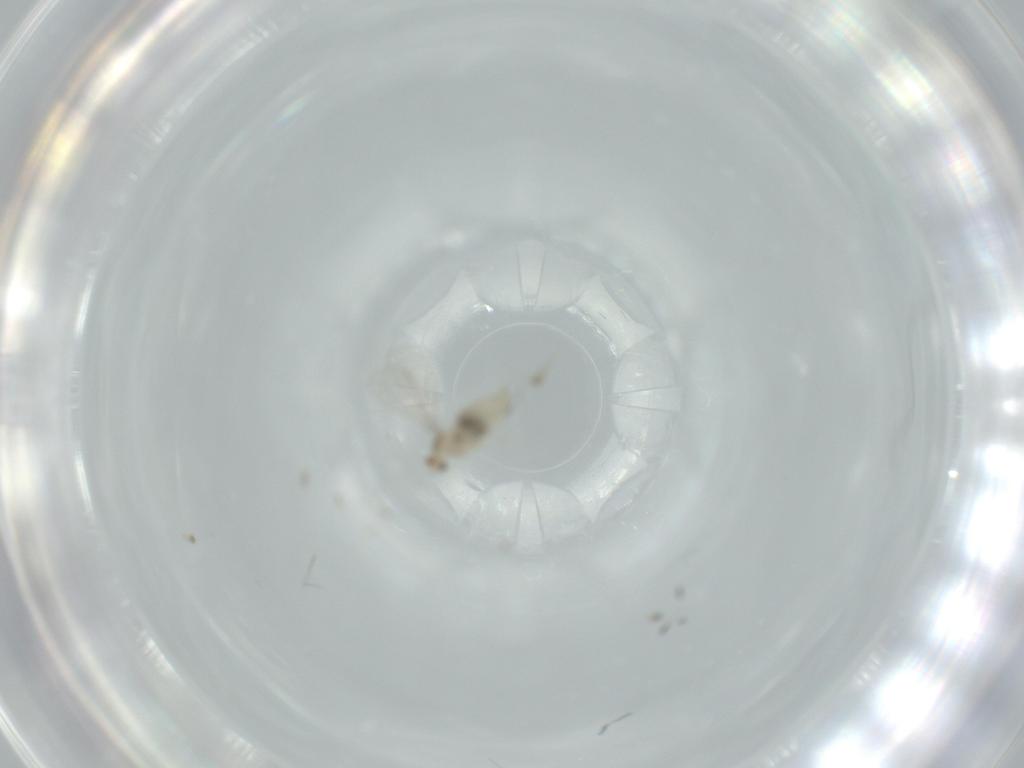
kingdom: Animalia
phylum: Arthropoda
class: Insecta
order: Diptera
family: Cecidomyiidae
